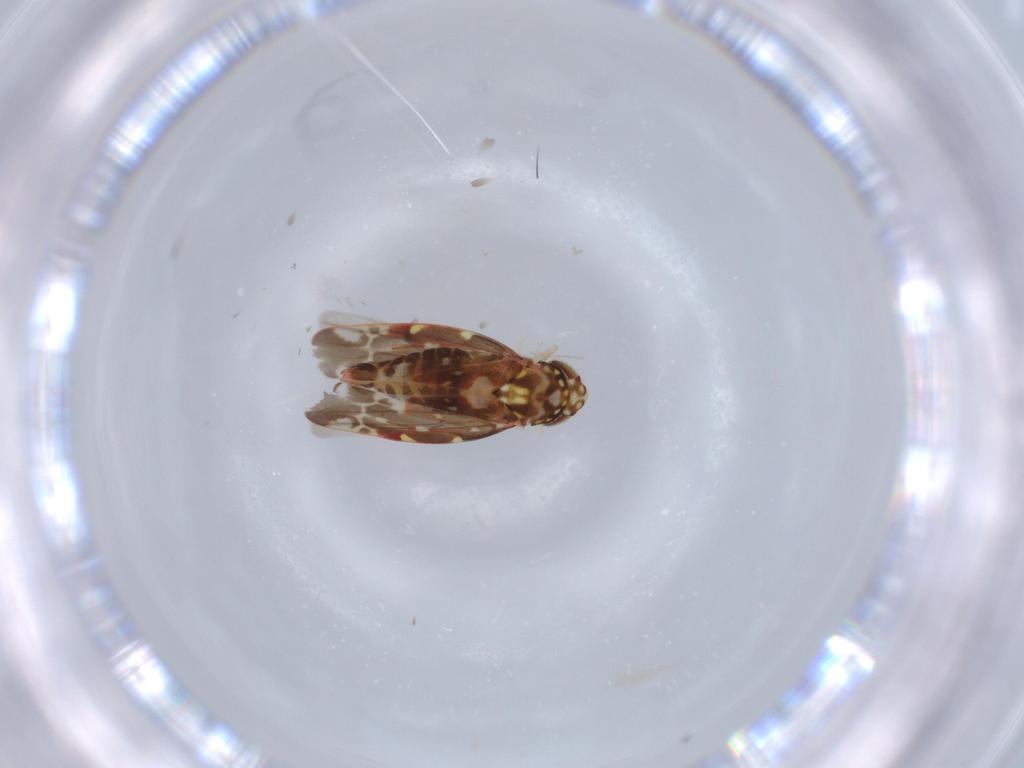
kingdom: Animalia
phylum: Arthropoda
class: Insecta
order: Hemiptera
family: Cicadellidae
